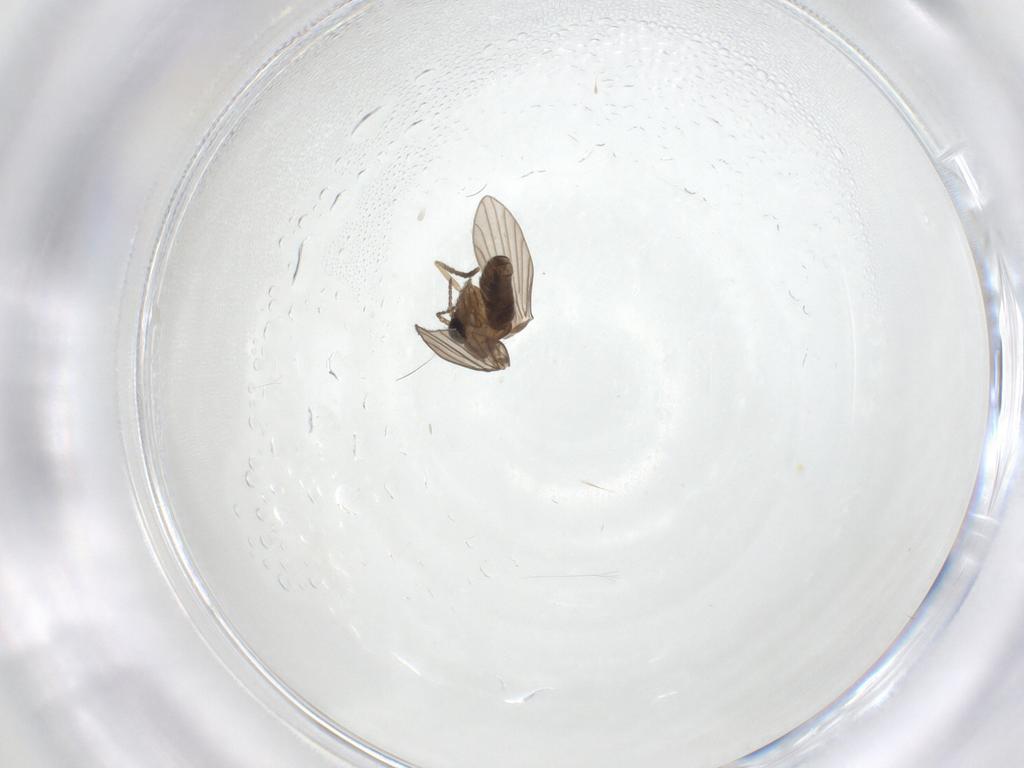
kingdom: Animalia
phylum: Arthropoda
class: Insecta
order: Diptera
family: Psychodidae
